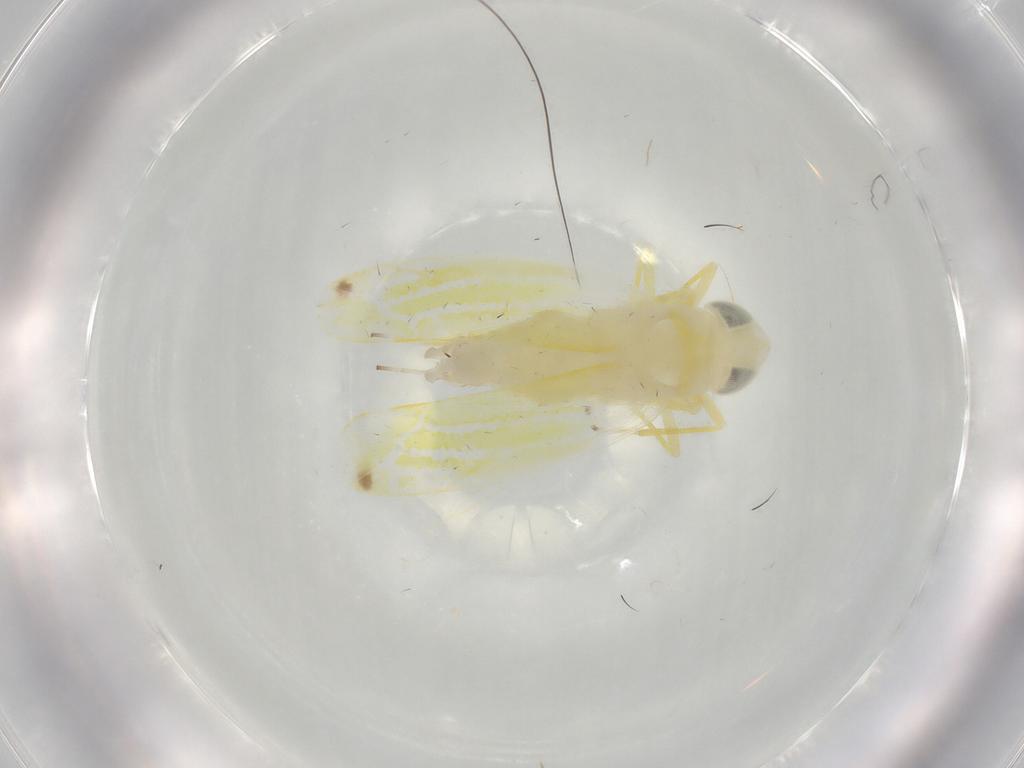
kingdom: Animalia
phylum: Arthropoda
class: Insecta
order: Hemiptera
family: Cicadellidae
